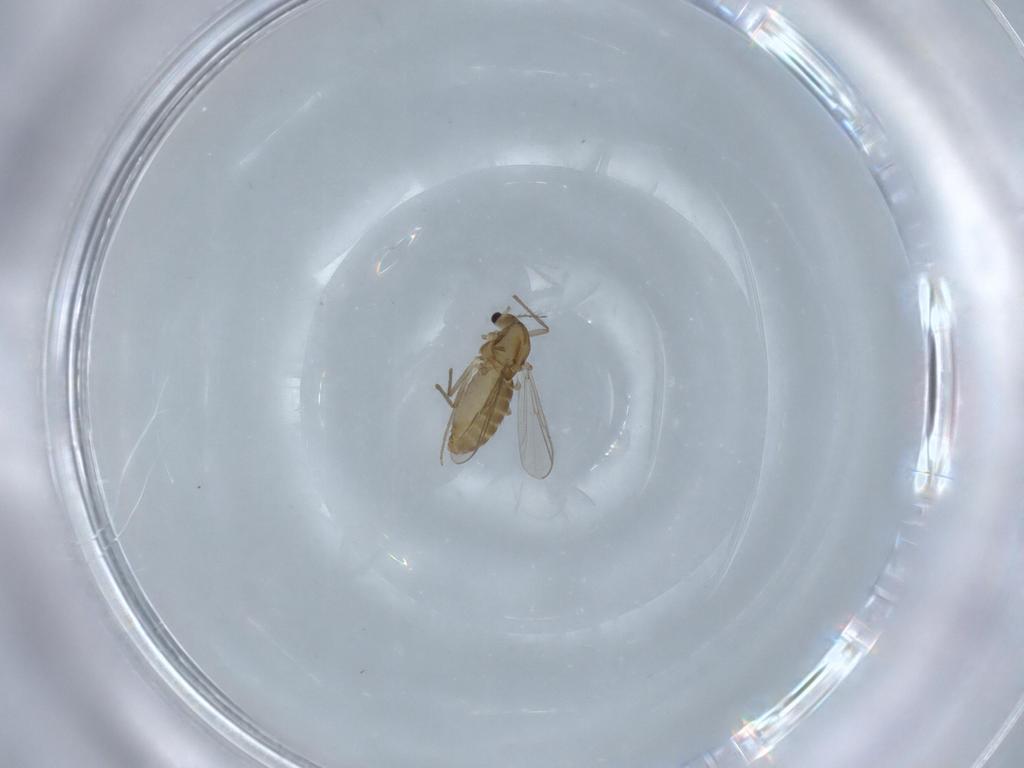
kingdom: Animalia
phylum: Arthropoda
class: Insecta
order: Diptera
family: Chironomidae
